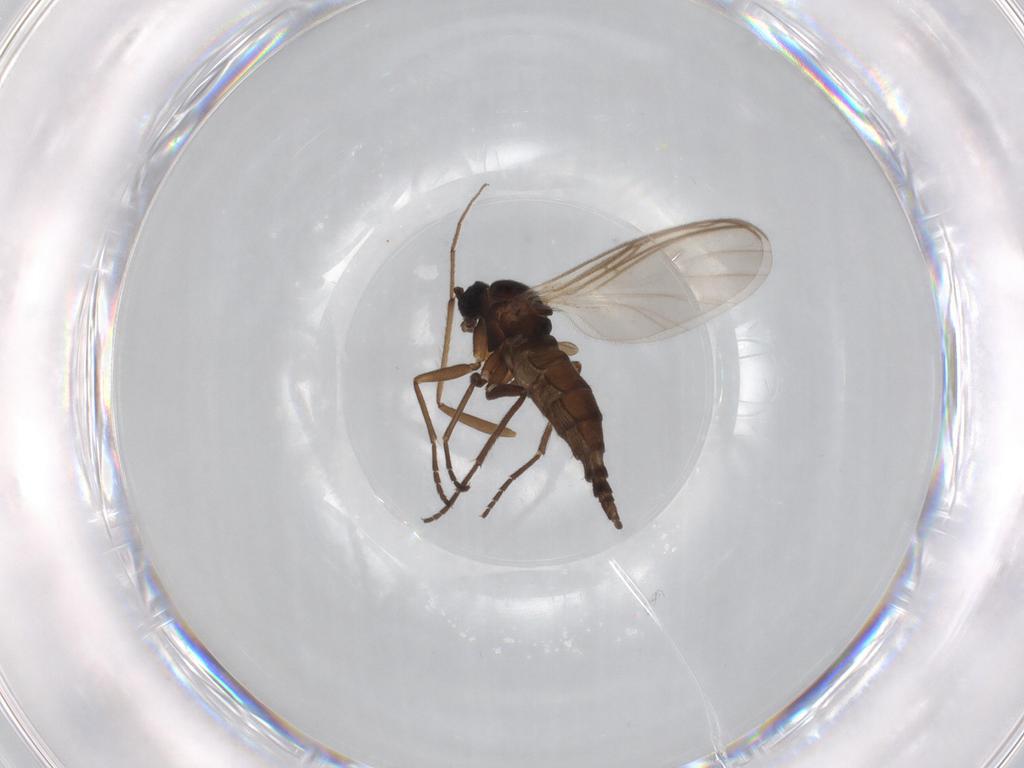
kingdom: Animalia
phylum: Arthropoda
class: Insecta
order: Diptera
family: Sciaridae
